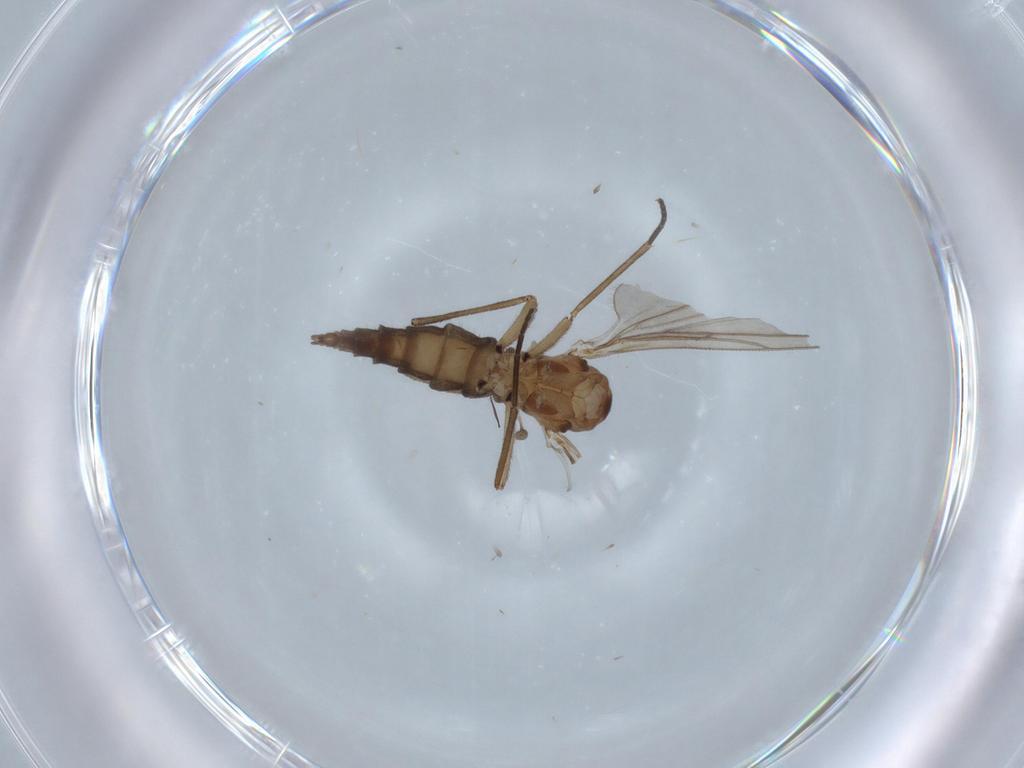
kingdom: Animalia
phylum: Arthropoda
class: Insecta
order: Diptera
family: Sciaridae
